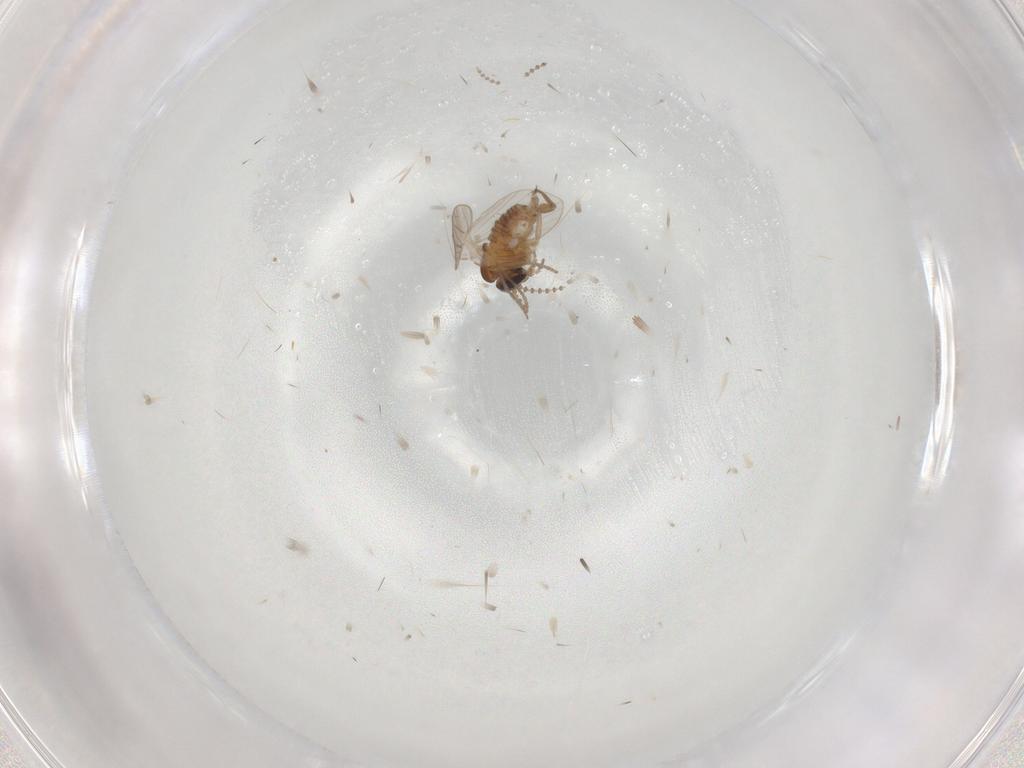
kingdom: Animalia
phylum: Arthropoda
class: Insecta
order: Diptera
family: Psychodidae
